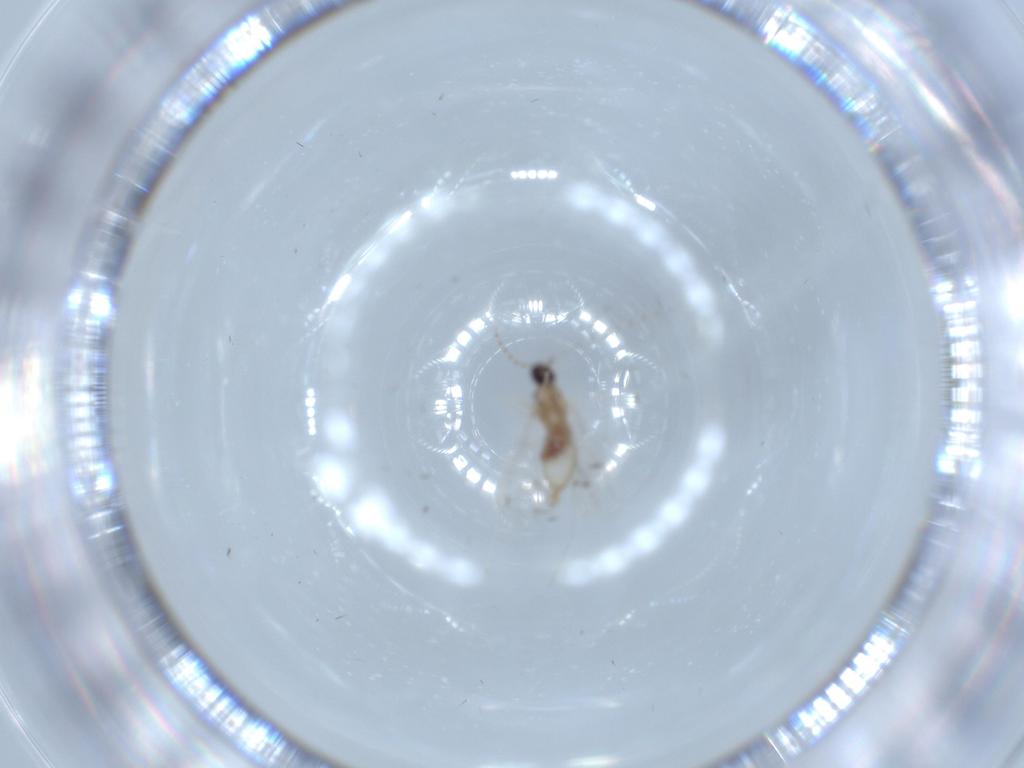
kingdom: Animalia
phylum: Arthropoda
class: Insecta
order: Diptera
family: Cecidomyiidae
